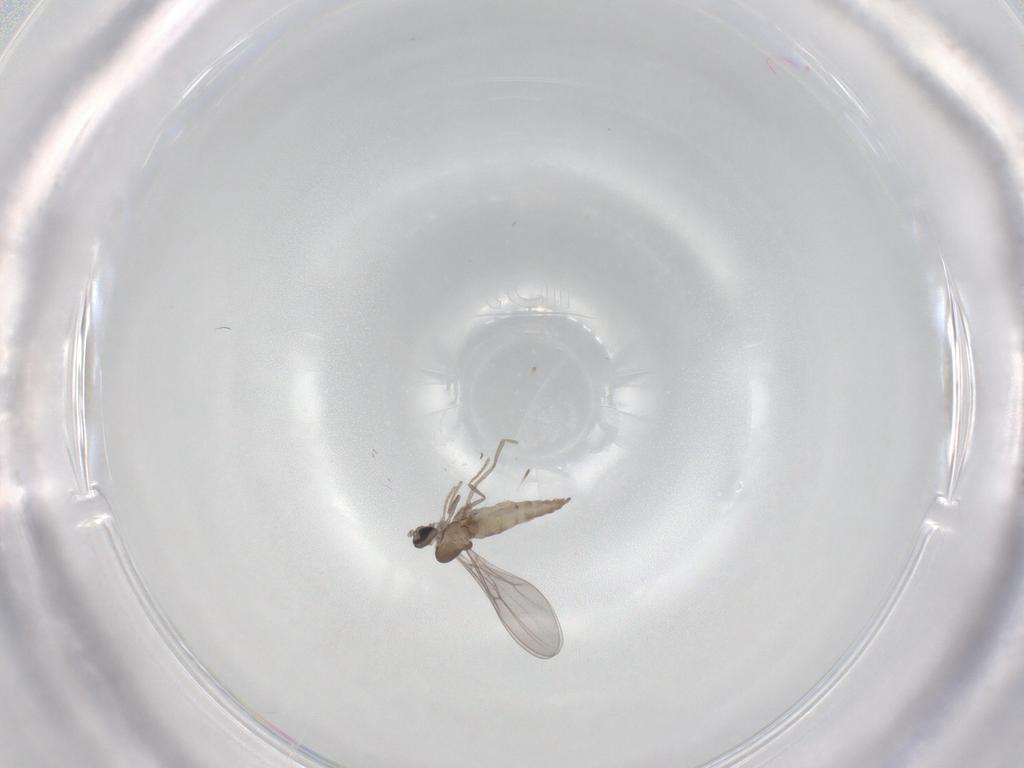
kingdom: Animalia
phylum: Arthropoda
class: Insecta
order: Diptera
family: Cecidomyiidae
